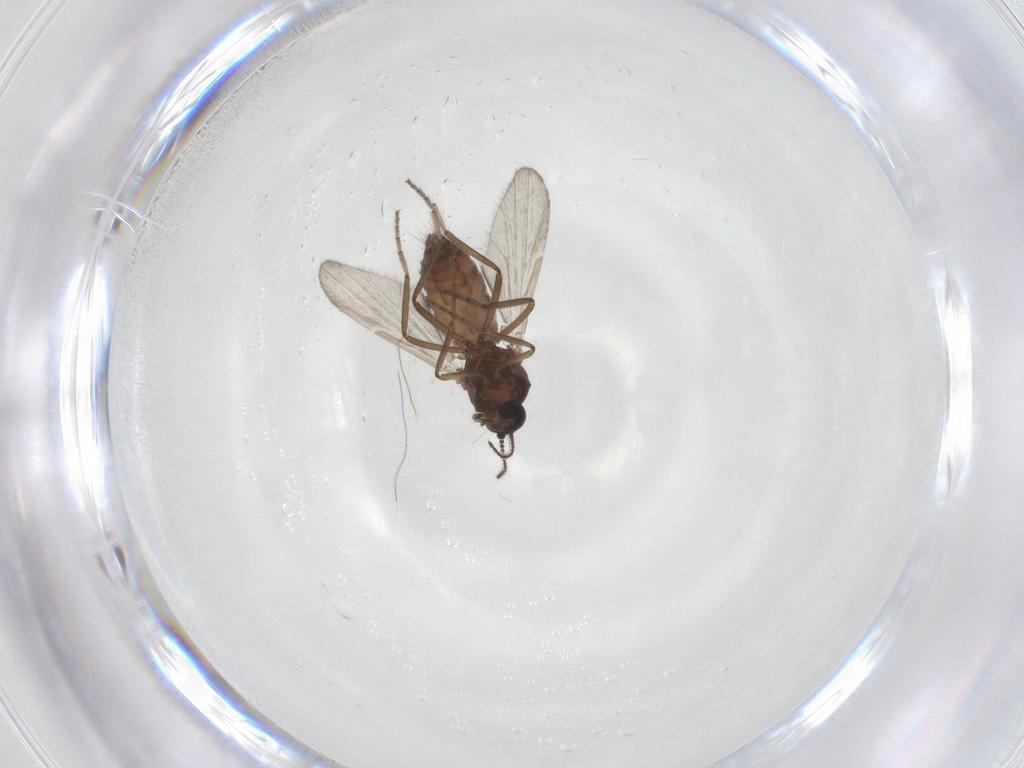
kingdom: Animalia
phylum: Arthropoda
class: Insecta
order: Diptera
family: Ceratopogonidae
